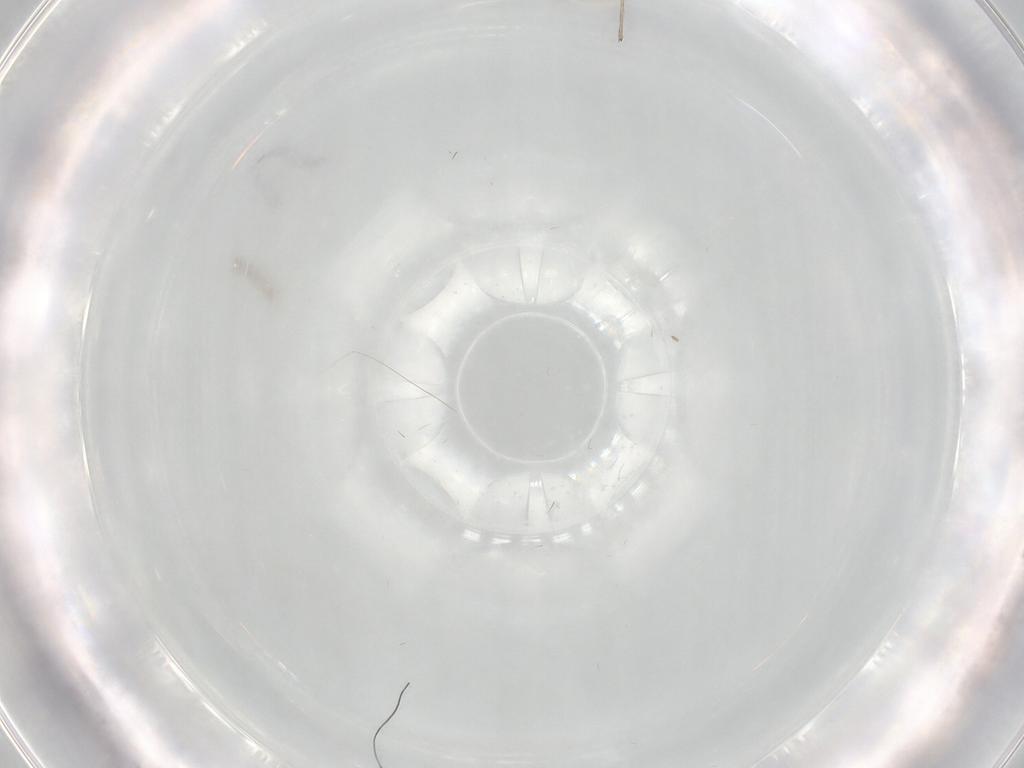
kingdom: Animalia
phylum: Arthropoda
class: Insecta
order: Diptera
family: Chironomidae
